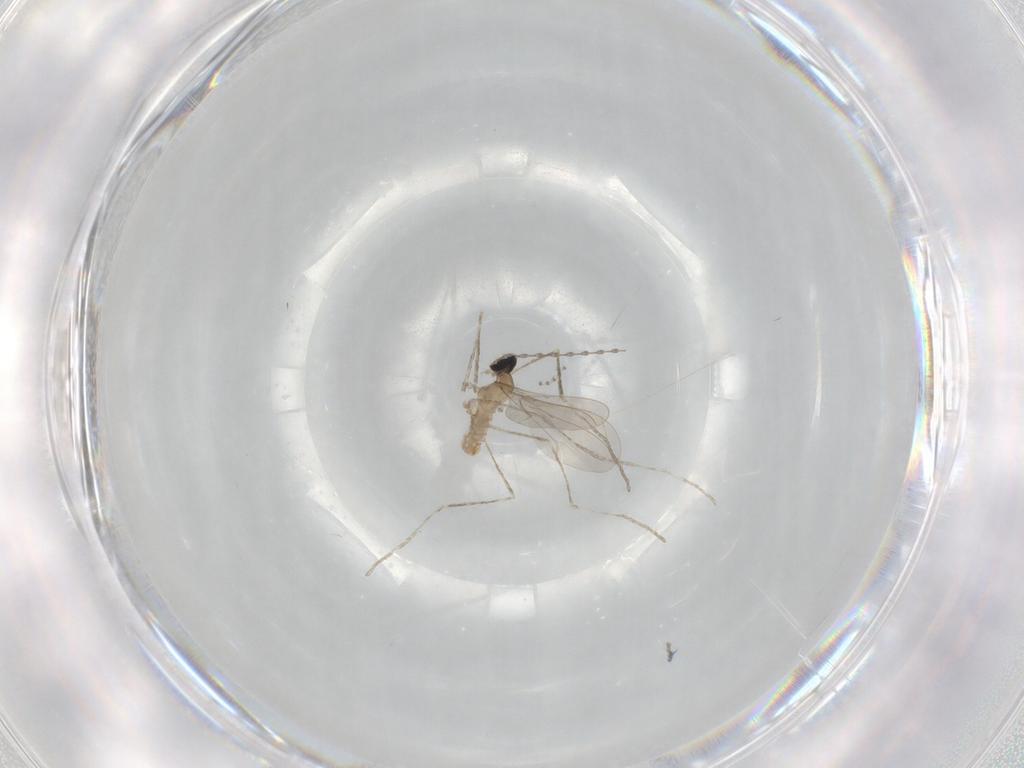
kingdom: Animalia
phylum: Arthropoda
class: Insecta
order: Diptera
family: Cecidomyiidae
